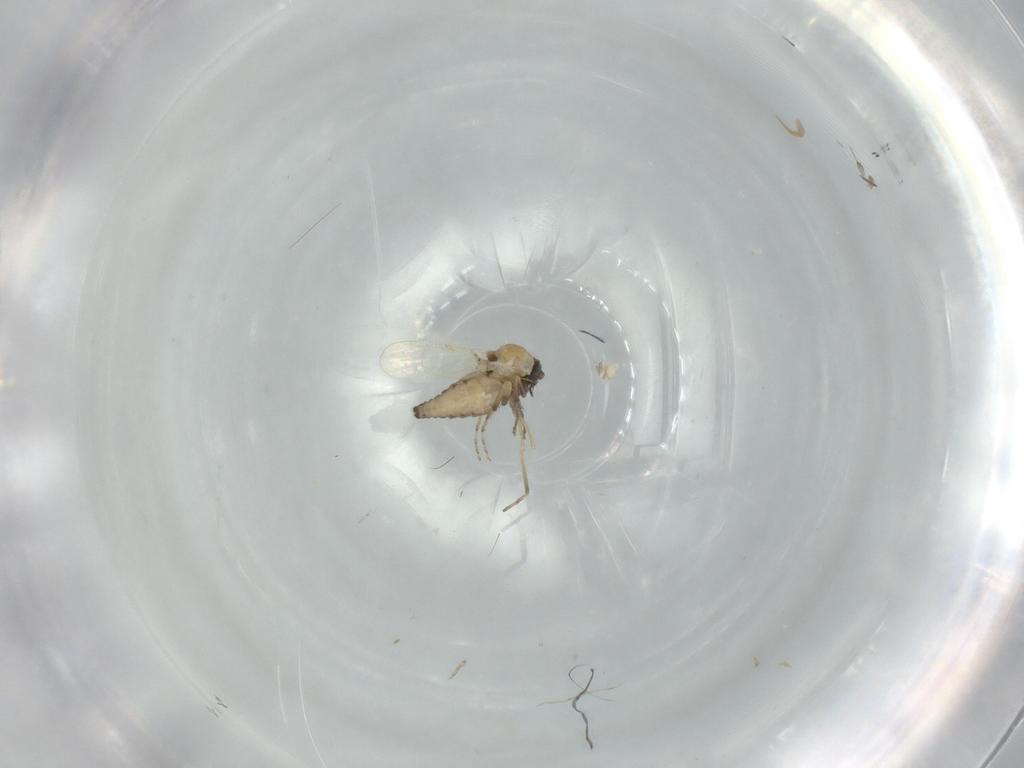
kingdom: Animalia
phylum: Arthropoda
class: Insecta
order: Diptera
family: Ceratopogonidae
